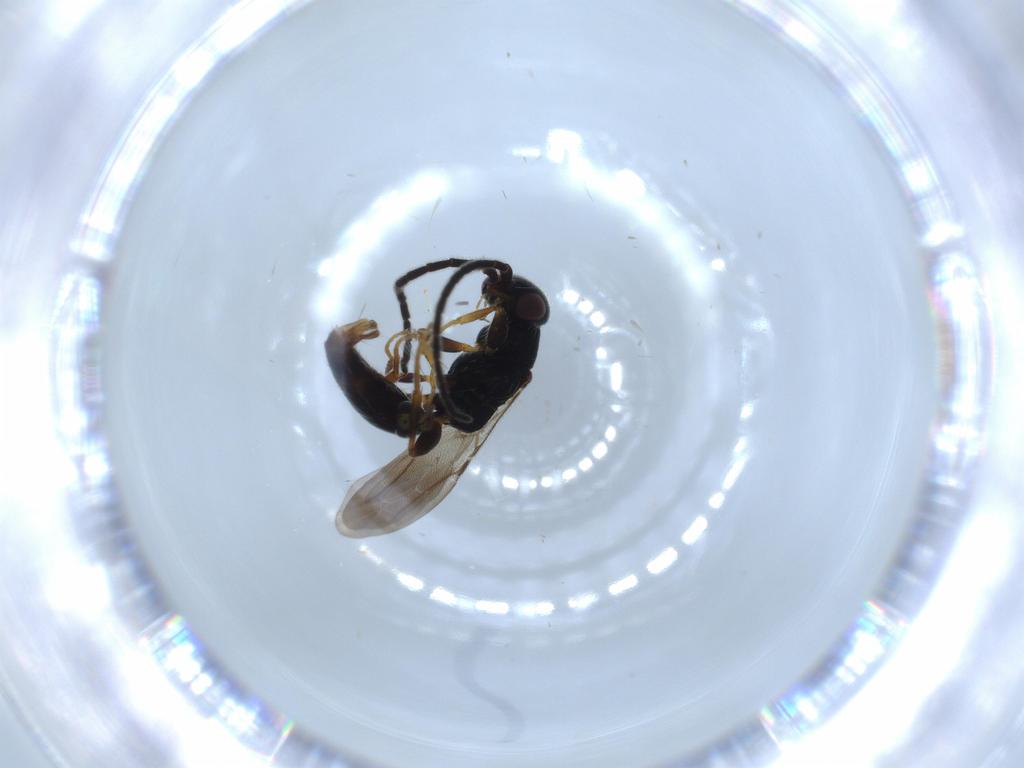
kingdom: Animalia
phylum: Arthropoda
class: Insecta
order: Hymenoptera
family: Bethylidae
